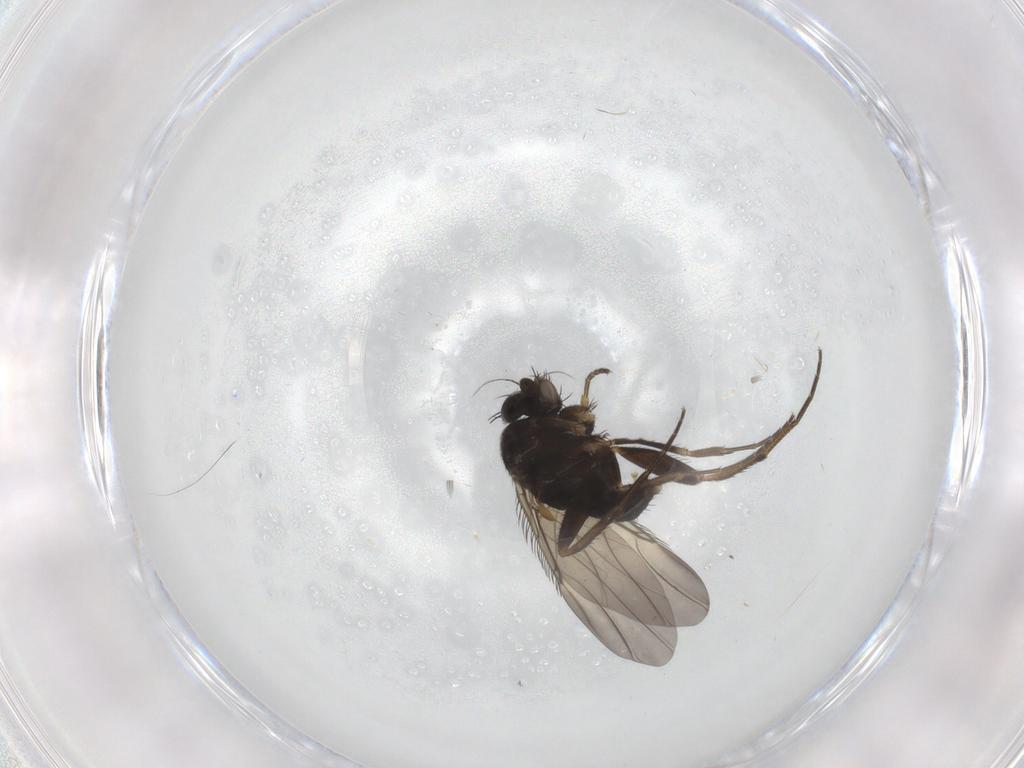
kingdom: Animalia
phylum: Arthropoda
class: Insecta
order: Diptera
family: Phoridae
